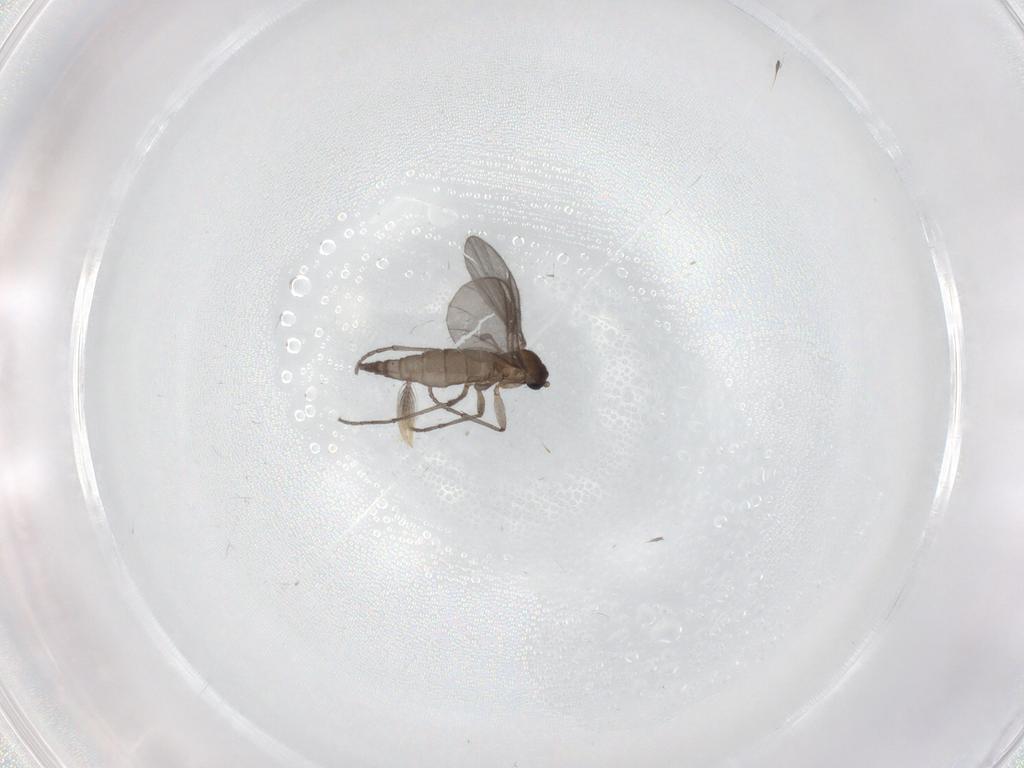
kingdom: Animalia
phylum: Arthropoda
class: Insecta
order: Diptera
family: Sciaridae
